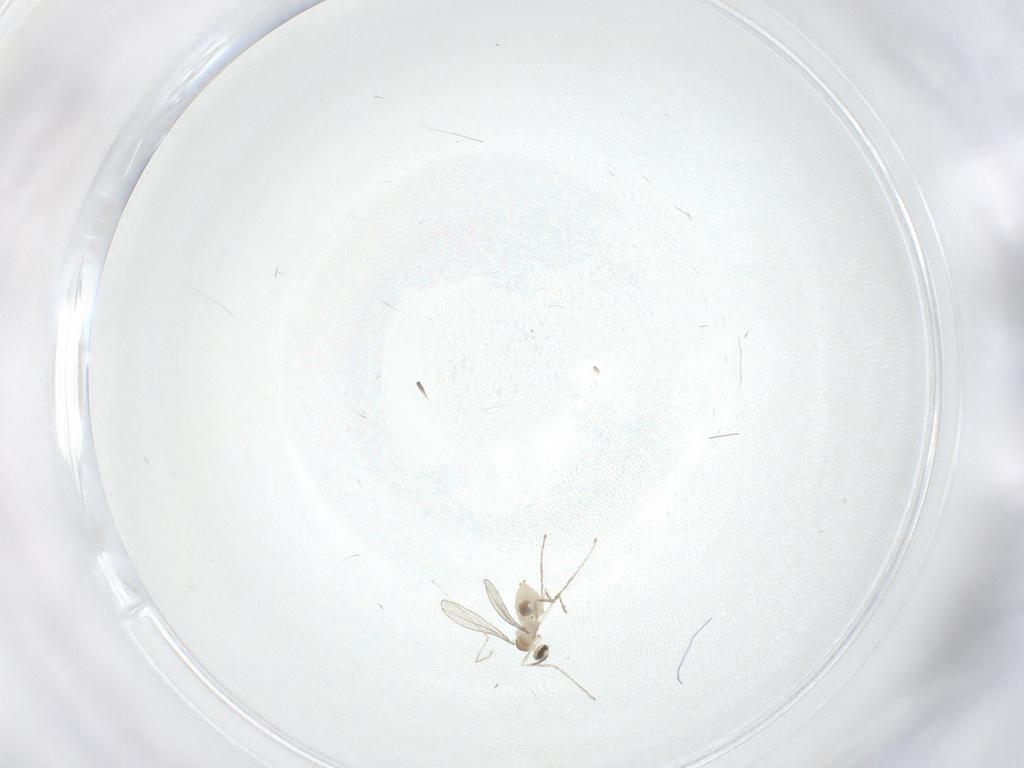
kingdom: Animalia
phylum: Arthropoda
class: Insecta
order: Diptera
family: Cecidomyiidae
